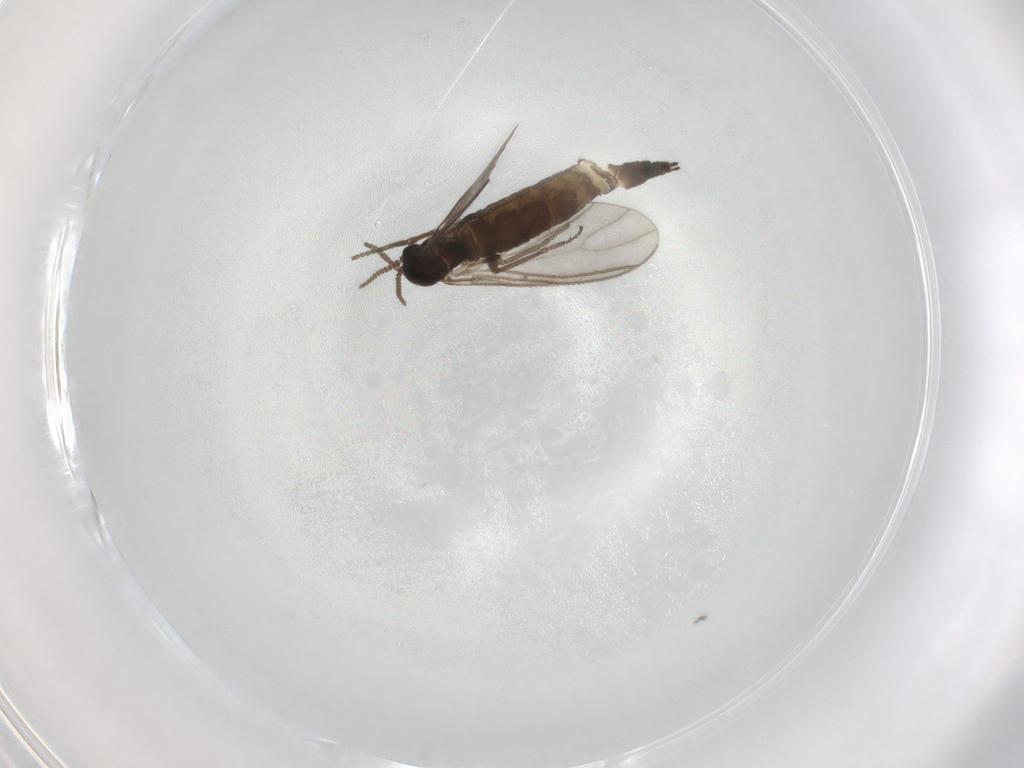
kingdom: Animalia
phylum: Arthropoda
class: Insecta
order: Diptera
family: Sciaridae
